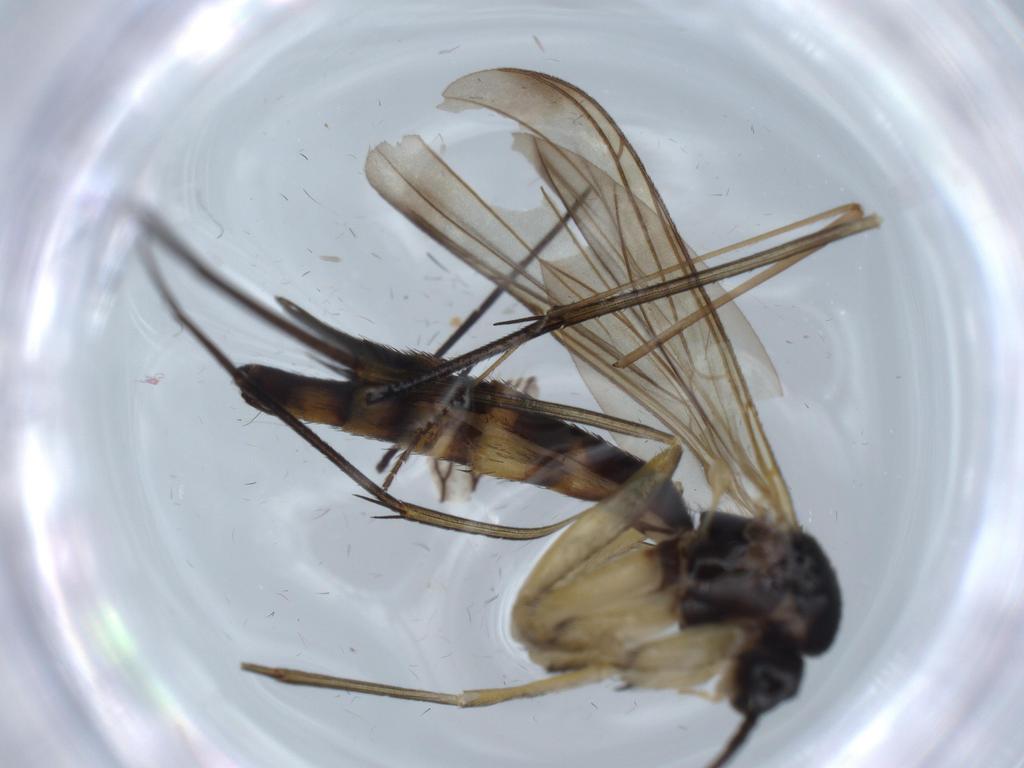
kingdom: Animalia
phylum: Arthropoda
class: Insecta
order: Diptera
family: Keroplatidae
